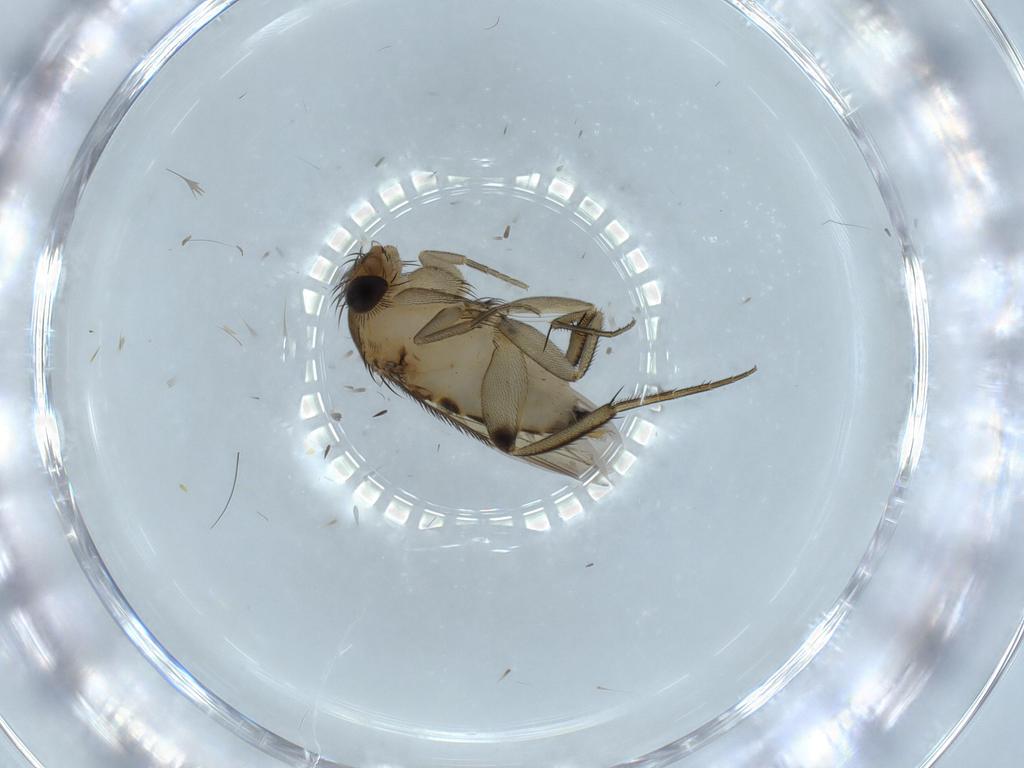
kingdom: Animalia
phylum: Arthropoda
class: Insecta
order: Diptera
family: Phoridae
